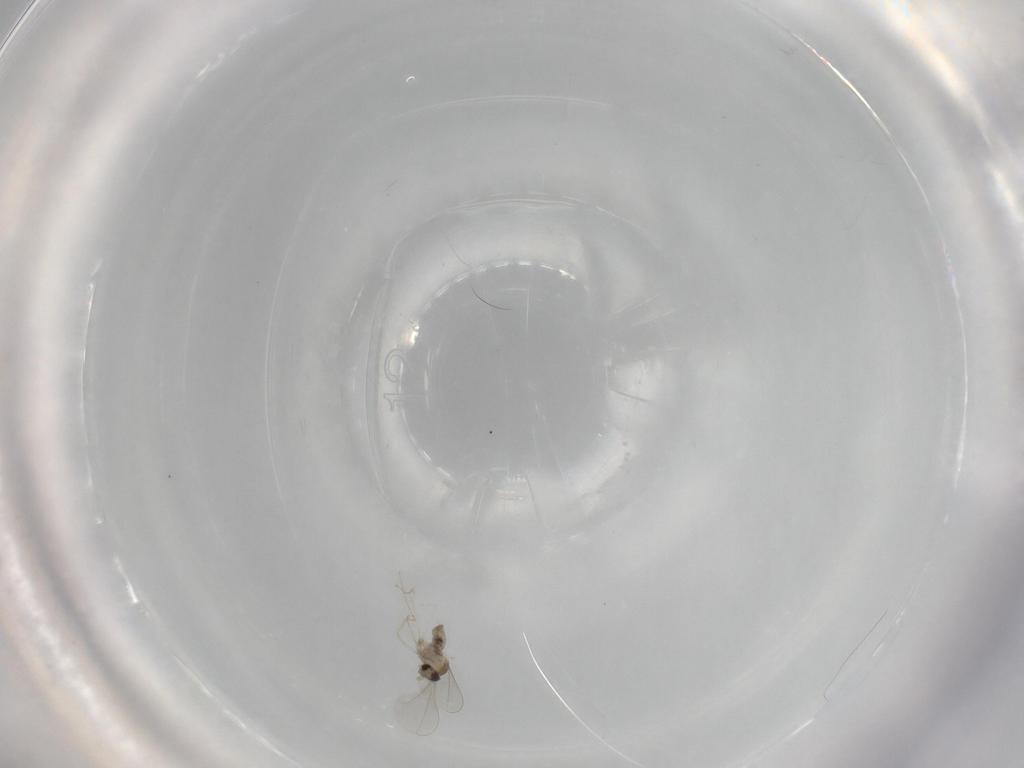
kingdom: Animalia
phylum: Arthropoda
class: Insecta
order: Diptera
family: Cecidomyiidae
